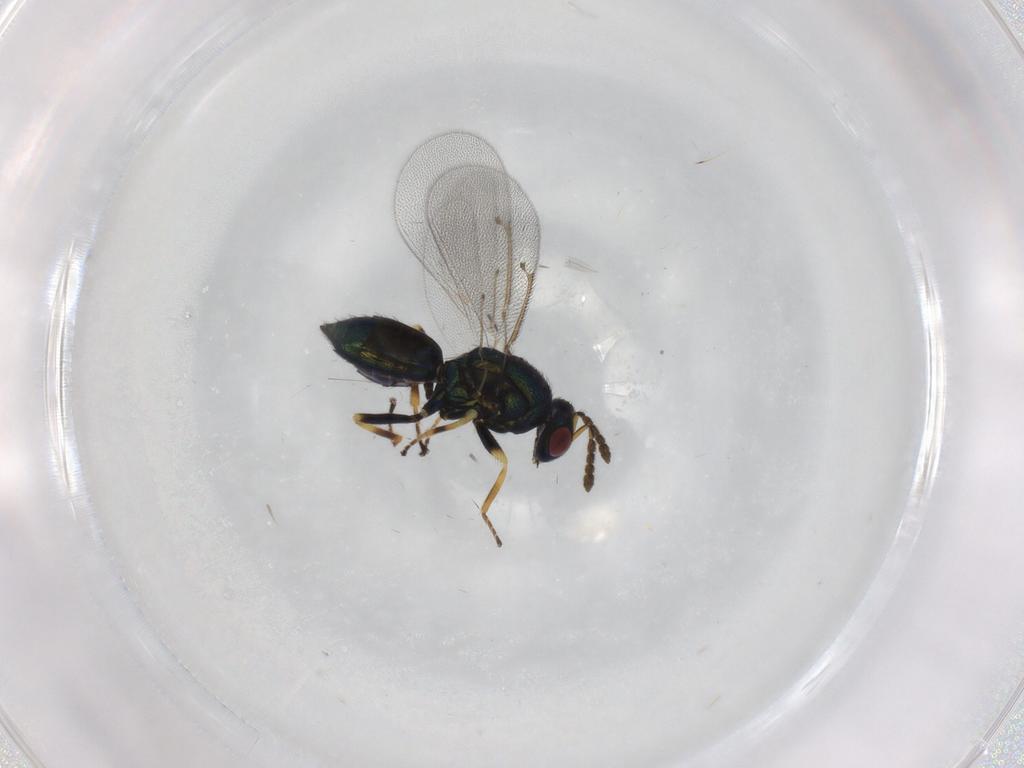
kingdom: Animalia
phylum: Arthropoda
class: Insecta
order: Hymenoptera
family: Eulophidae
